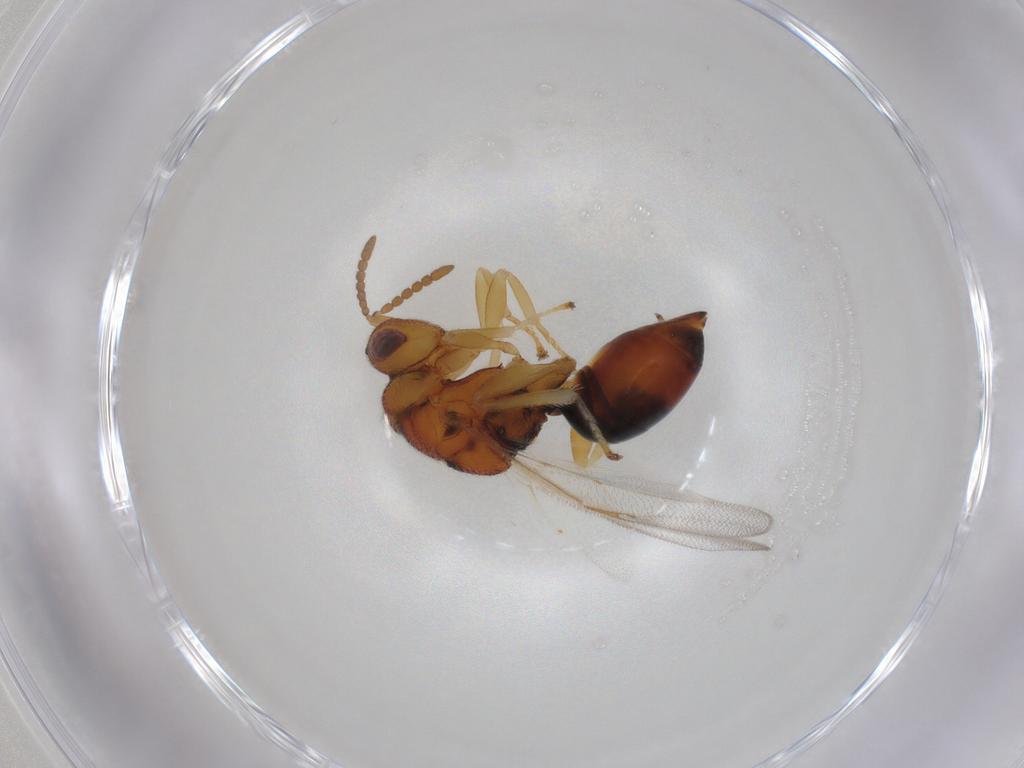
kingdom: Animalia
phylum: Arthropoda
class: Insecta
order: Hymenoptera
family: Eurytomidae
